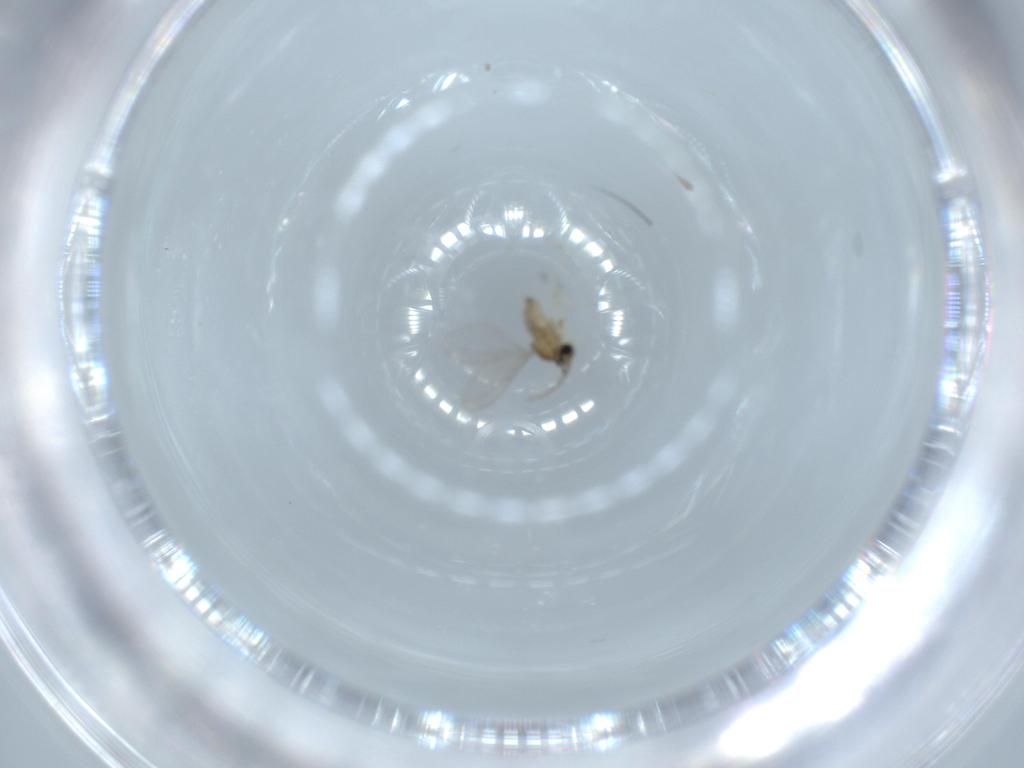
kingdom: Animalia
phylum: Arthropoda
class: Insecta
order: Diptera
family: Cecidomyiidae
